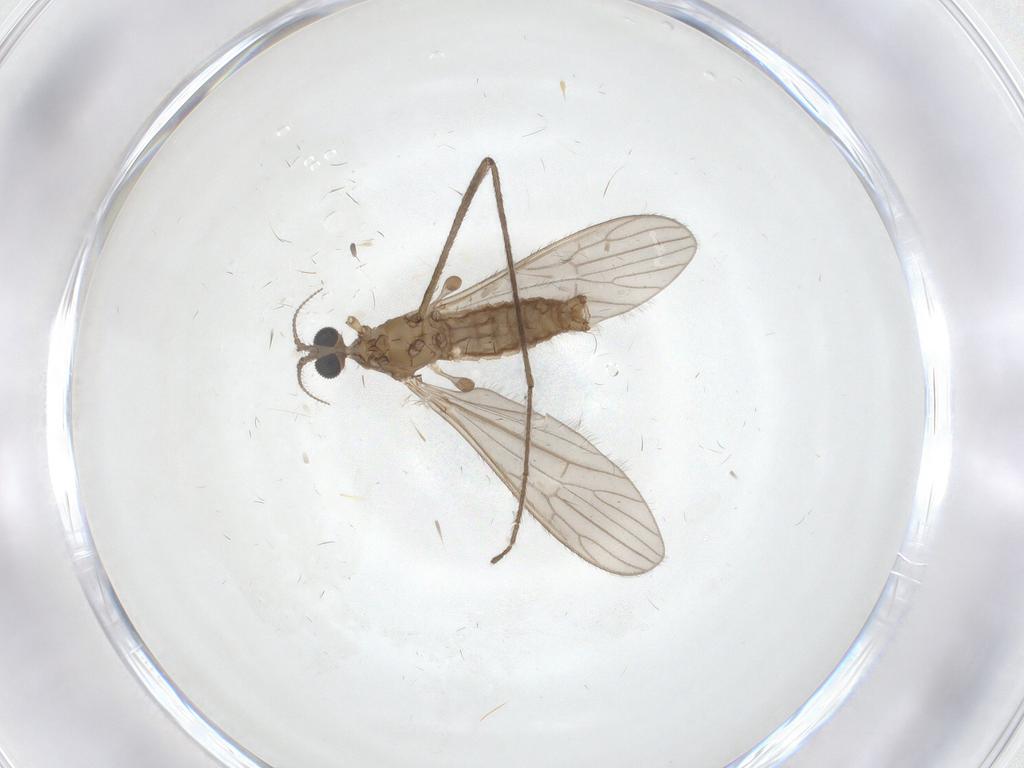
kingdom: Animalia
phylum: Arthropoda
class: Insecta
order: Diptera
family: Limoniidae
